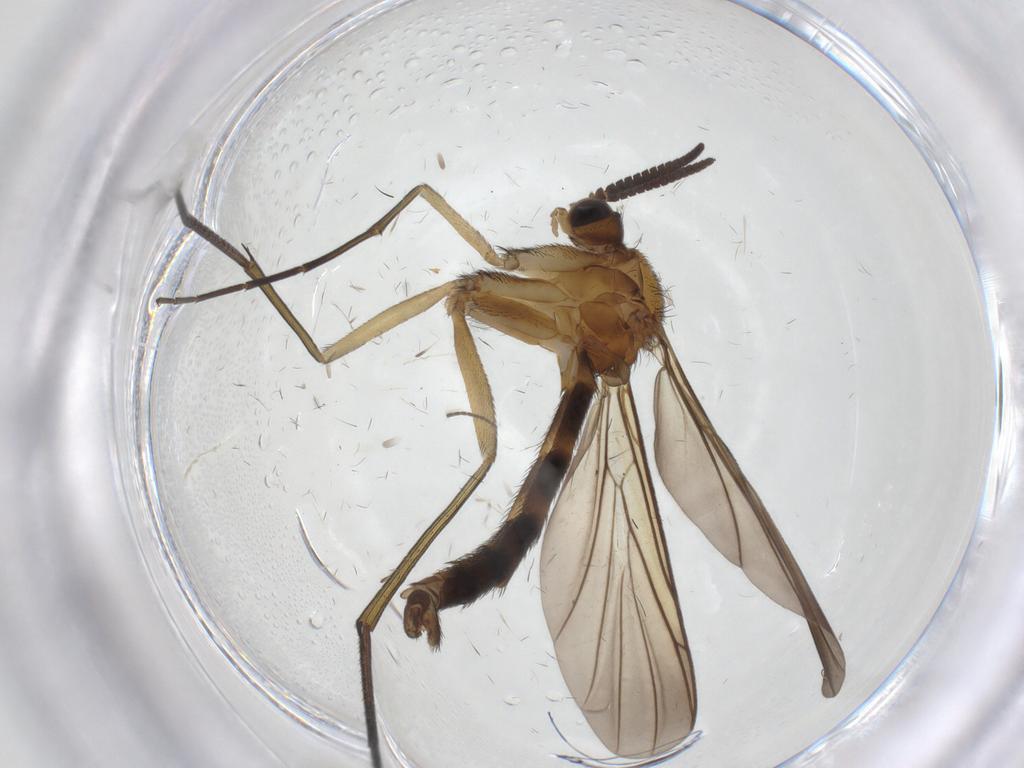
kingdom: Animalia
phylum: Arthropoda
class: Insecta
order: Diptera
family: Keroplatidae
